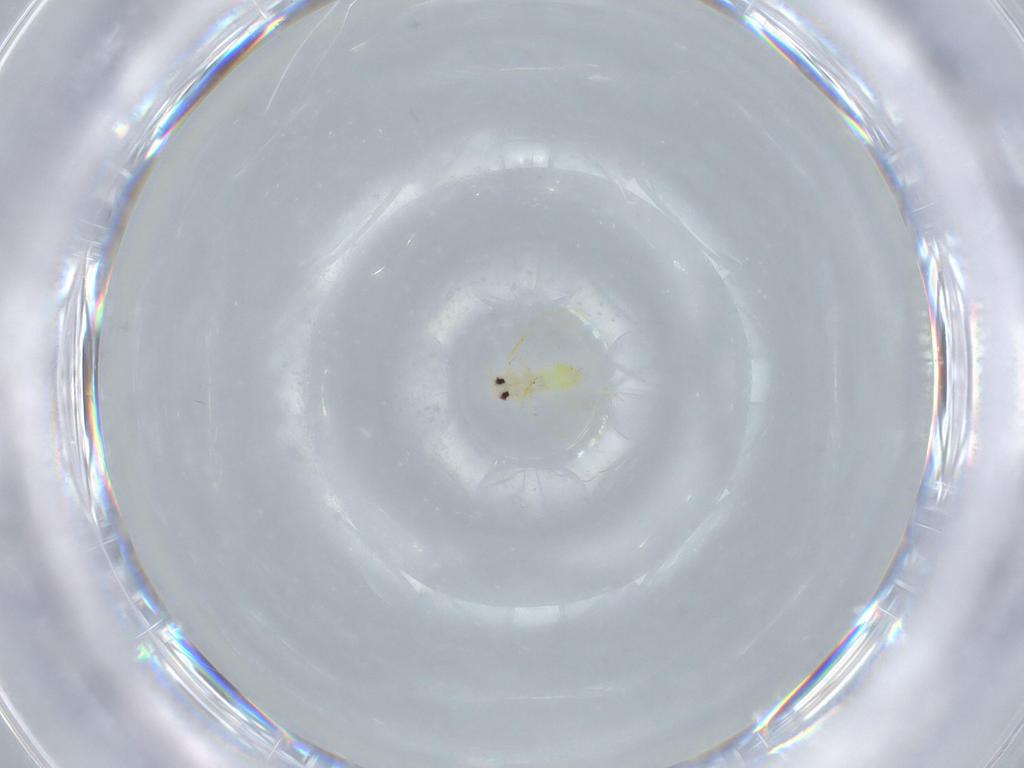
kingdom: Animalia
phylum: Arthropoda
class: Insecta
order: Hemiptera
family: Aleyrodidae
